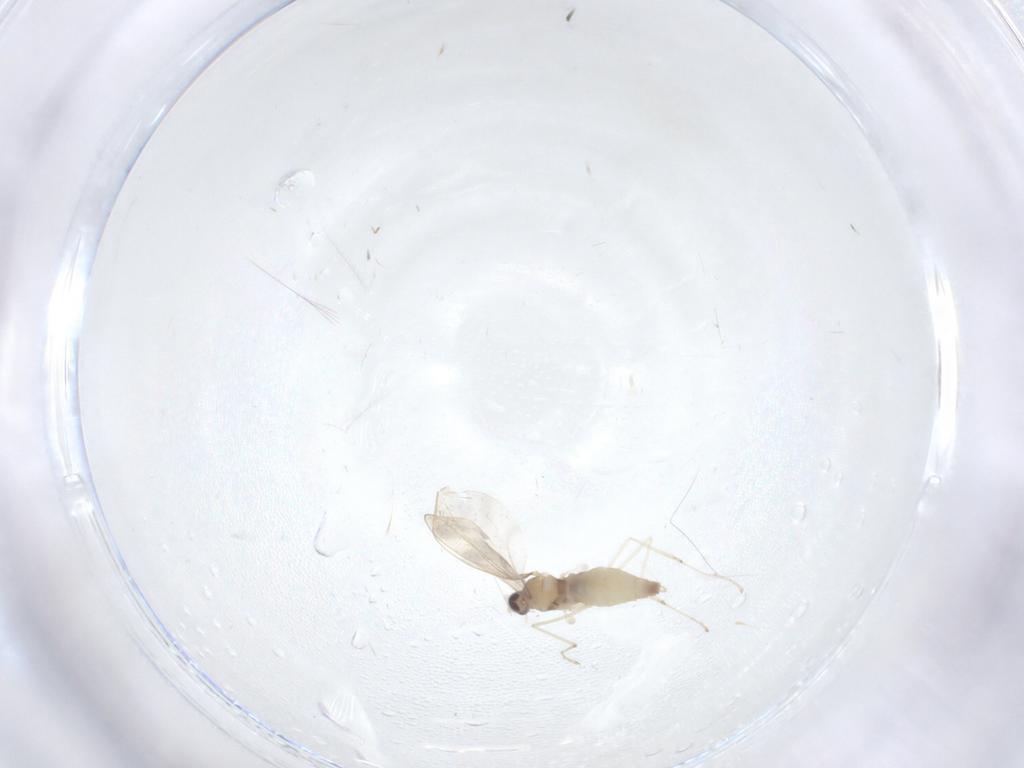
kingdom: Animalia
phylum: Arthropoda
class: Insecta
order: Diptera
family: Cecidomyiidae
